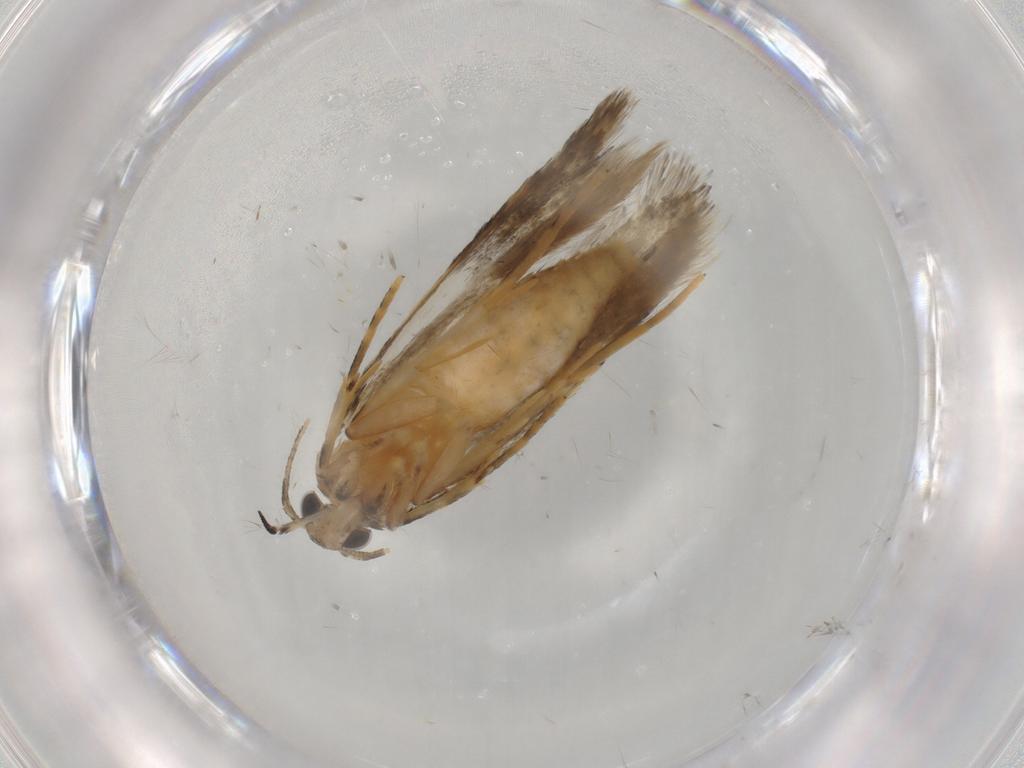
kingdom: Animalia
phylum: Arthropoda
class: Insecta
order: Lepidoptera
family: Autostichidae
